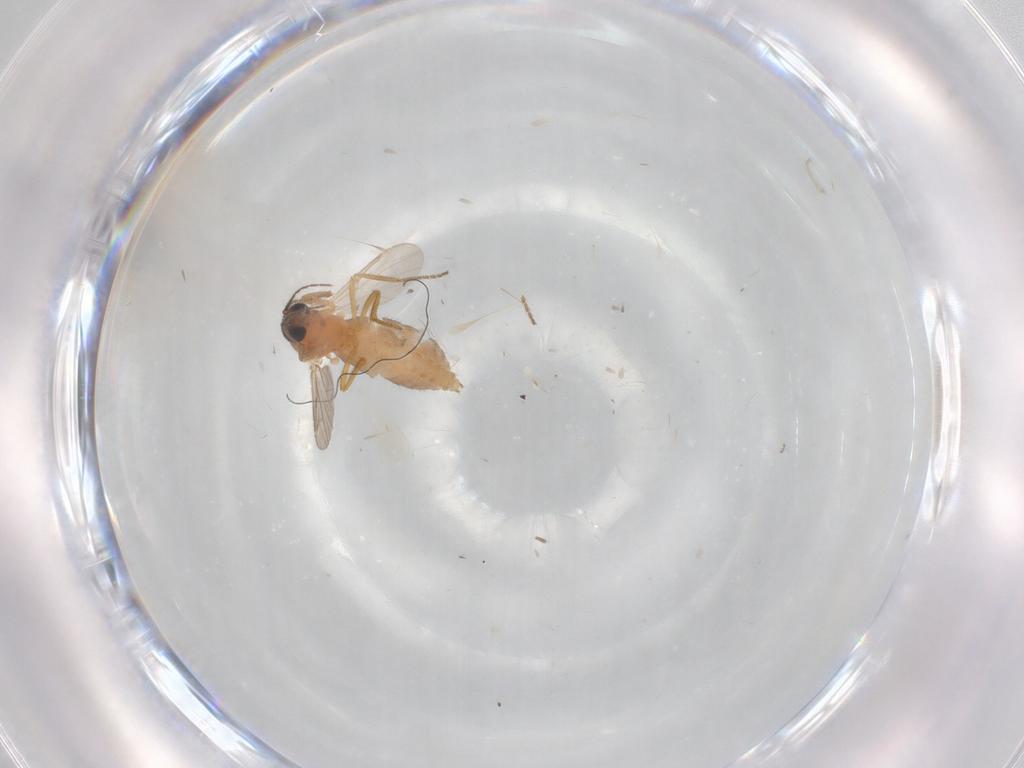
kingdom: Animalia
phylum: Arthropoda
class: Insecta
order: Diptera
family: Ceratopogonidae
